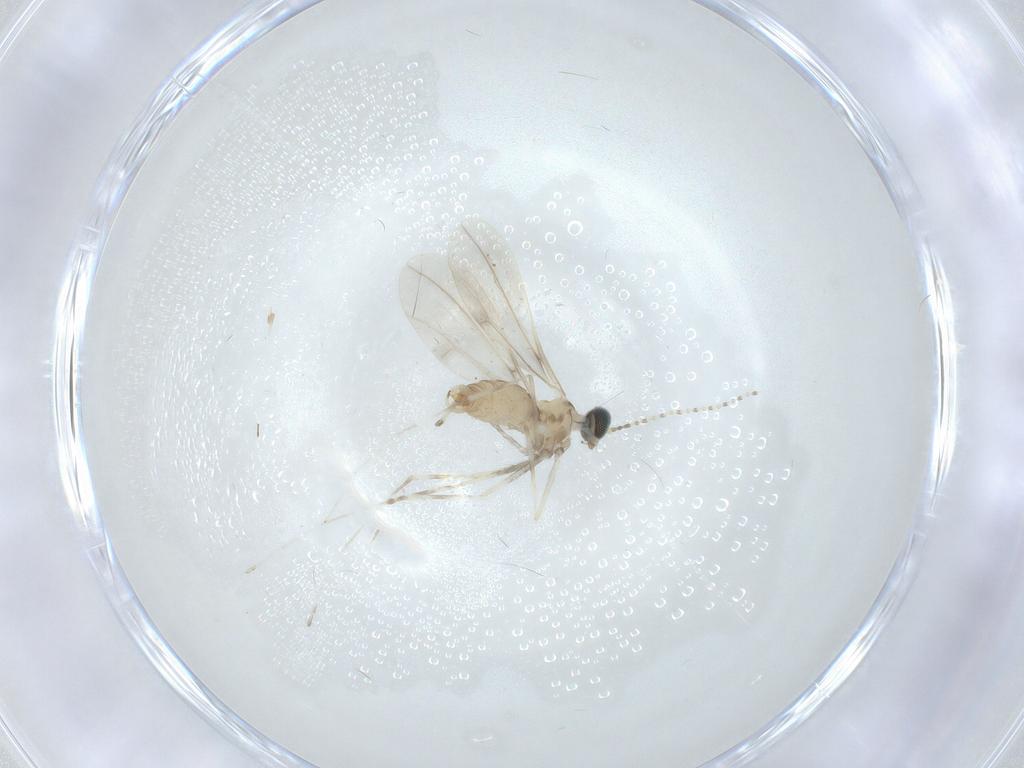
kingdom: Animalia
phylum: Arthropoda
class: Insecta
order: Diptera
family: Cecidomyiidae
